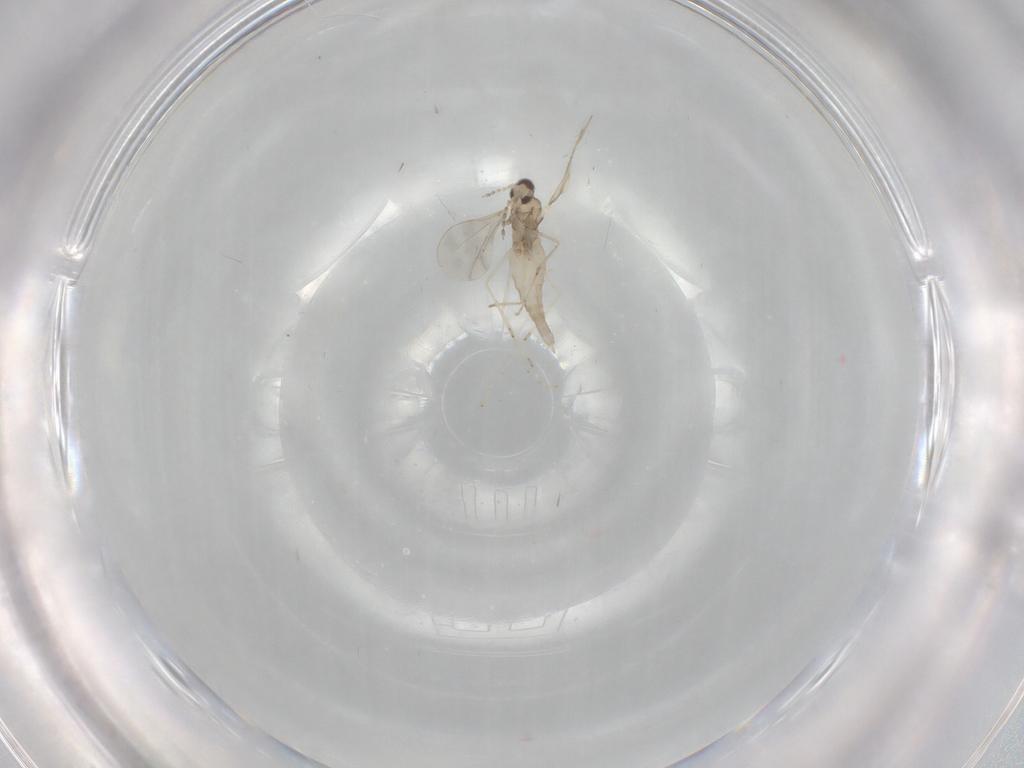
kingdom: Animalia
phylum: Arthropoda
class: Insecta
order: Diptera
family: Cecidomyiidae
